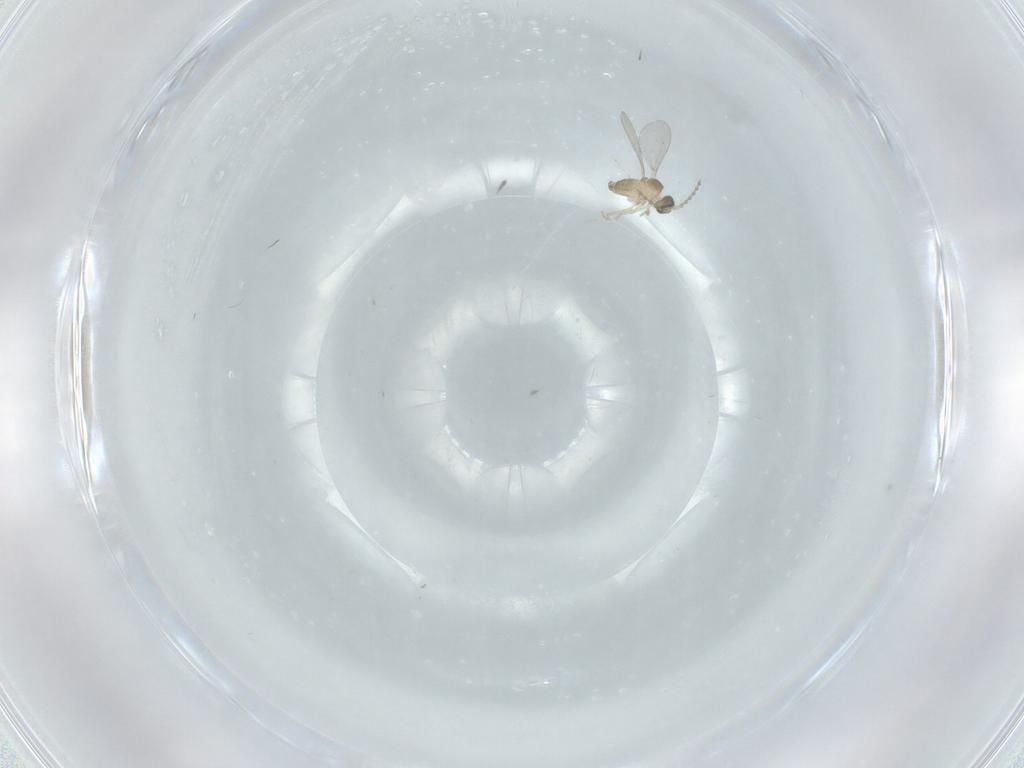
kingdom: Animalia
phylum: Arthropoda
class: Insecta
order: Diptera
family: Cecidomyiidae
